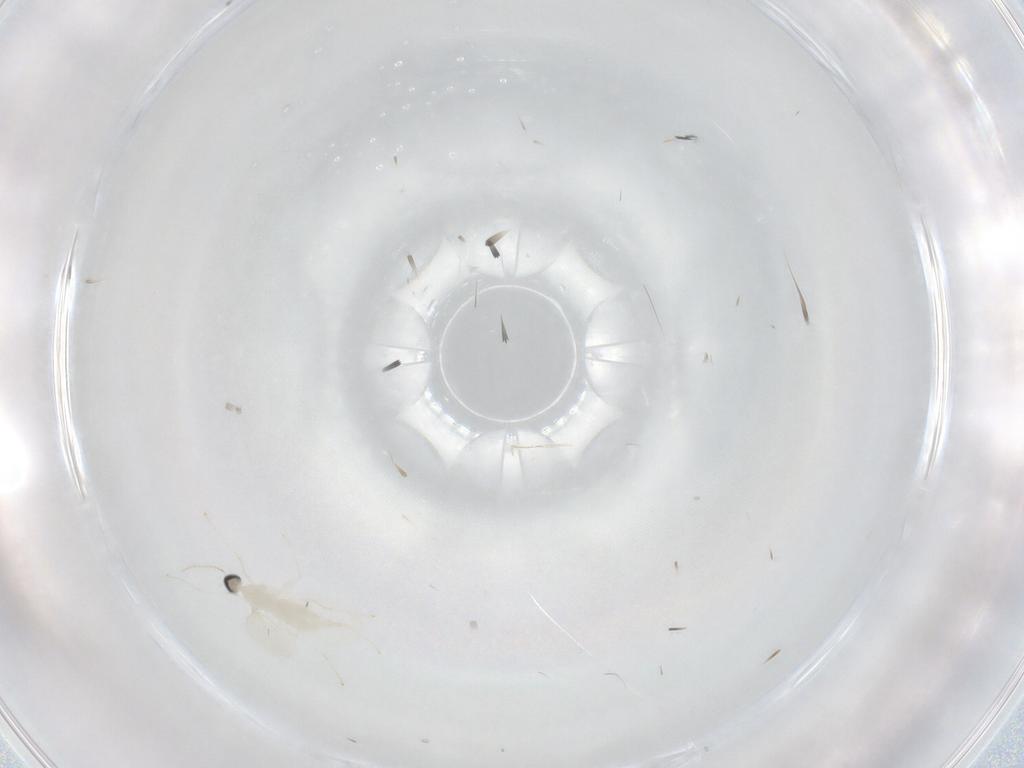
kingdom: Animalia
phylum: Arthropoda
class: Insecta
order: Diptera
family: Cecidomyiidae
